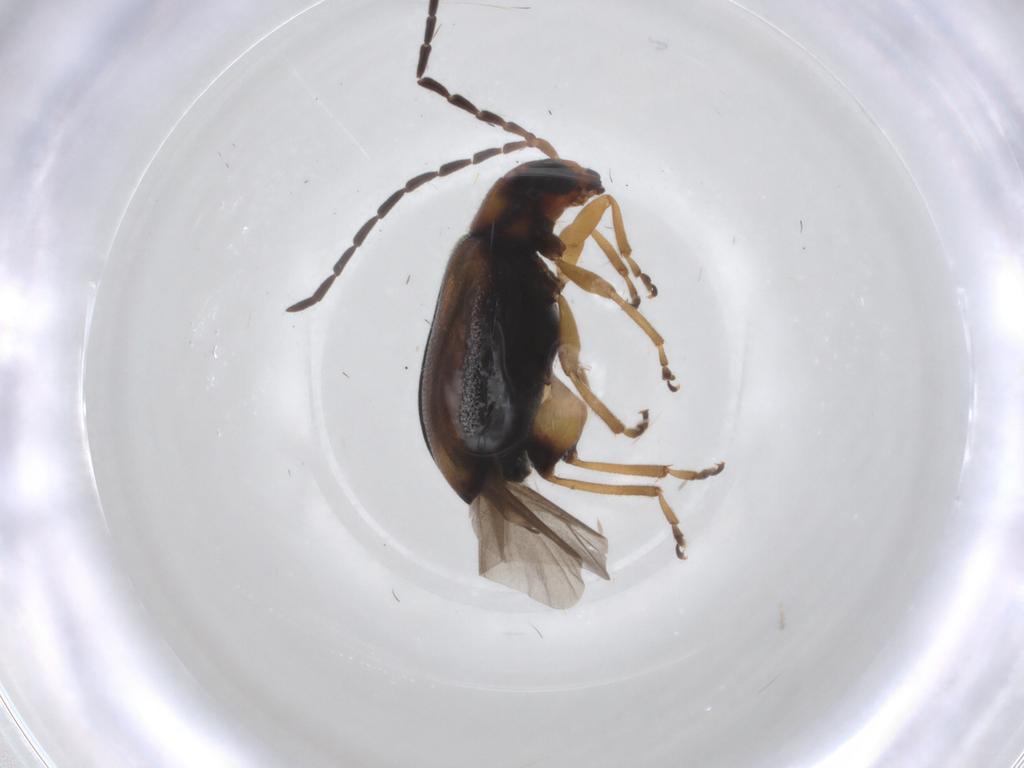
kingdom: Animalia
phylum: Arthropoda
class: Insecta
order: Coleoptera
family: Chrysomelidae
